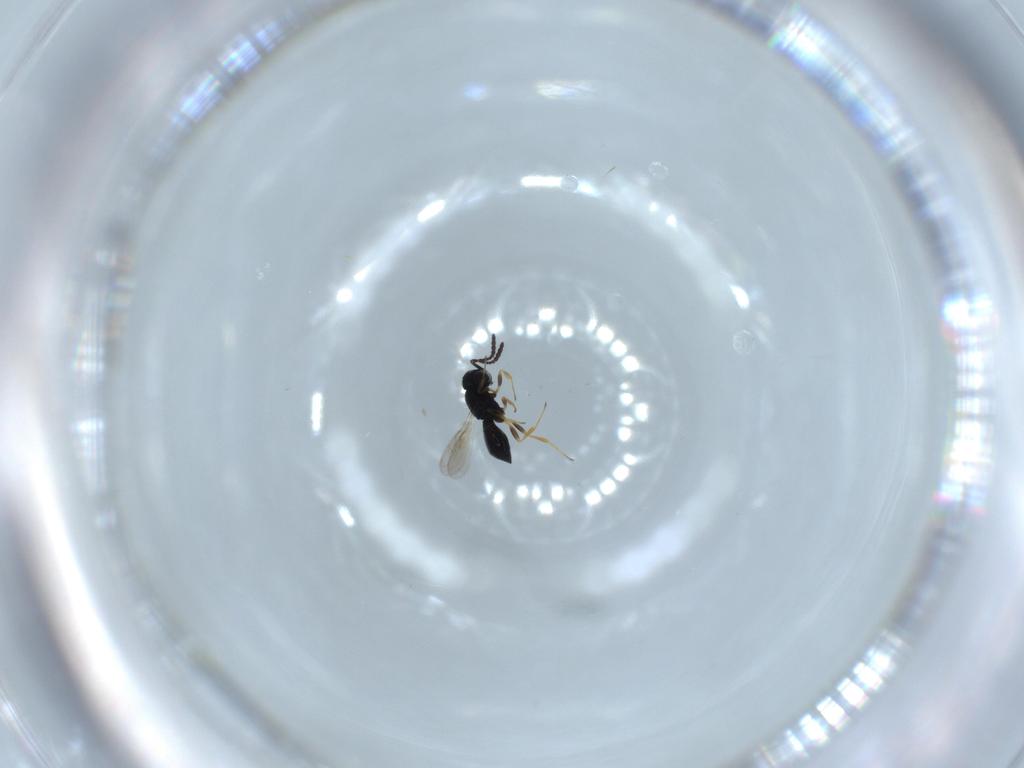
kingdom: Animalia
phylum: Arthropoda
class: Insecta
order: Hymenoptera
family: Scelionidae
